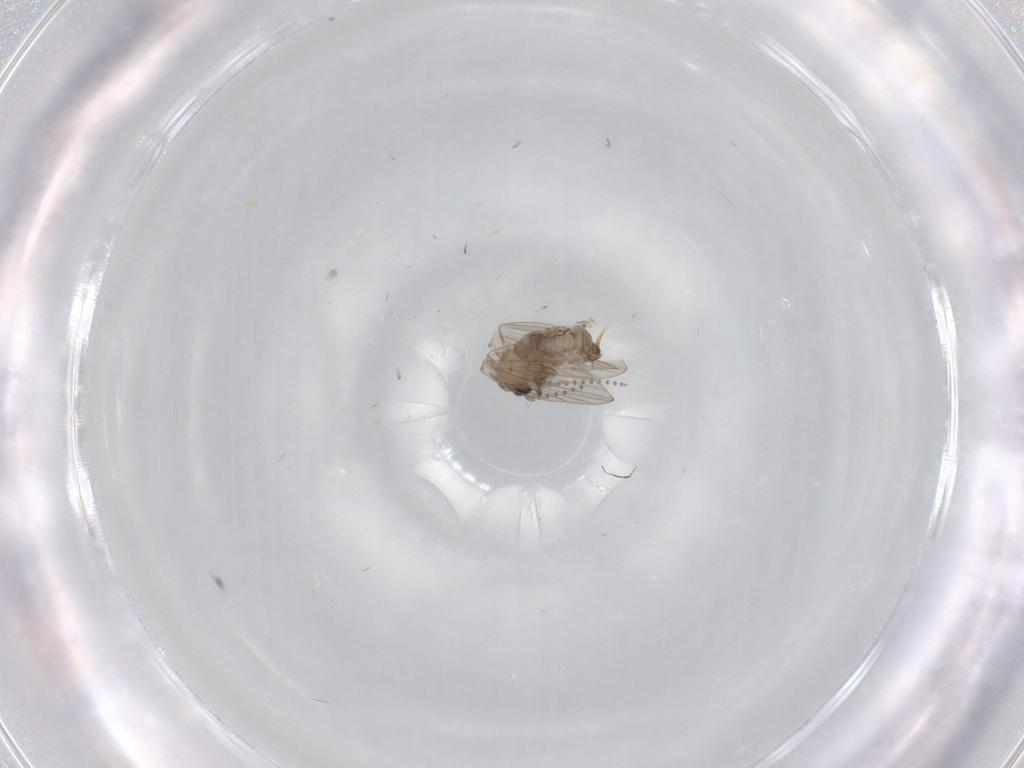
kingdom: Animalia
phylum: Arthropoda
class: Insecta
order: Diptera
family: Psychodidae
